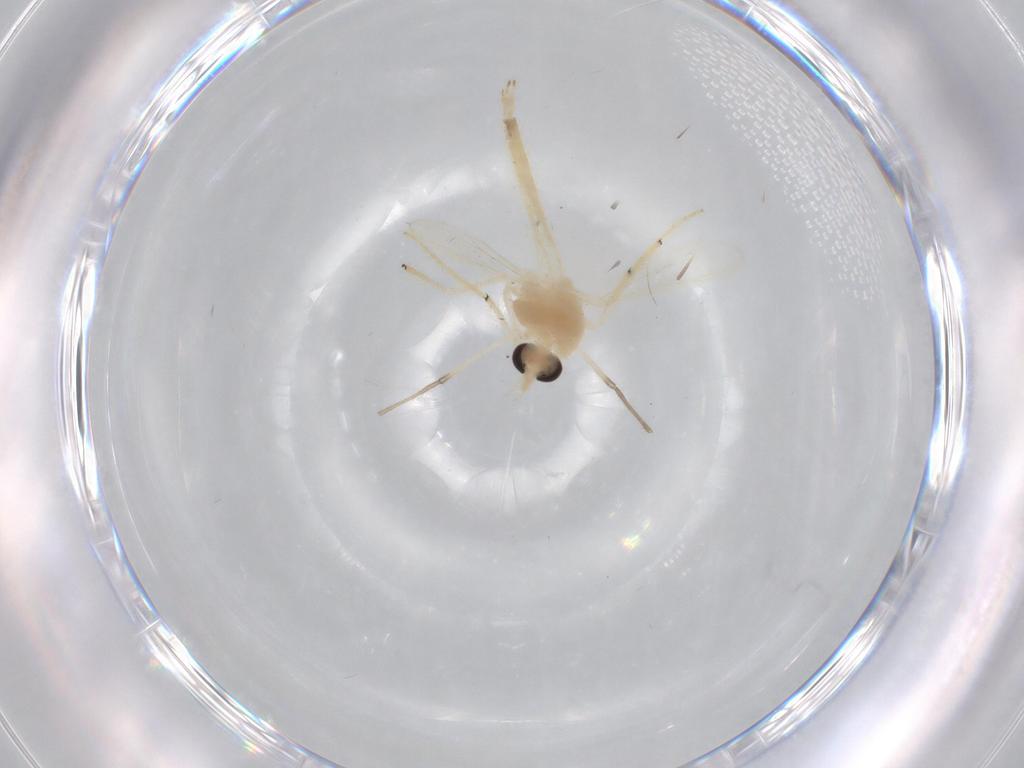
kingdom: Animalia
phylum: Arthropoda
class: Insecta
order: Diptera
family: Chironomidae
